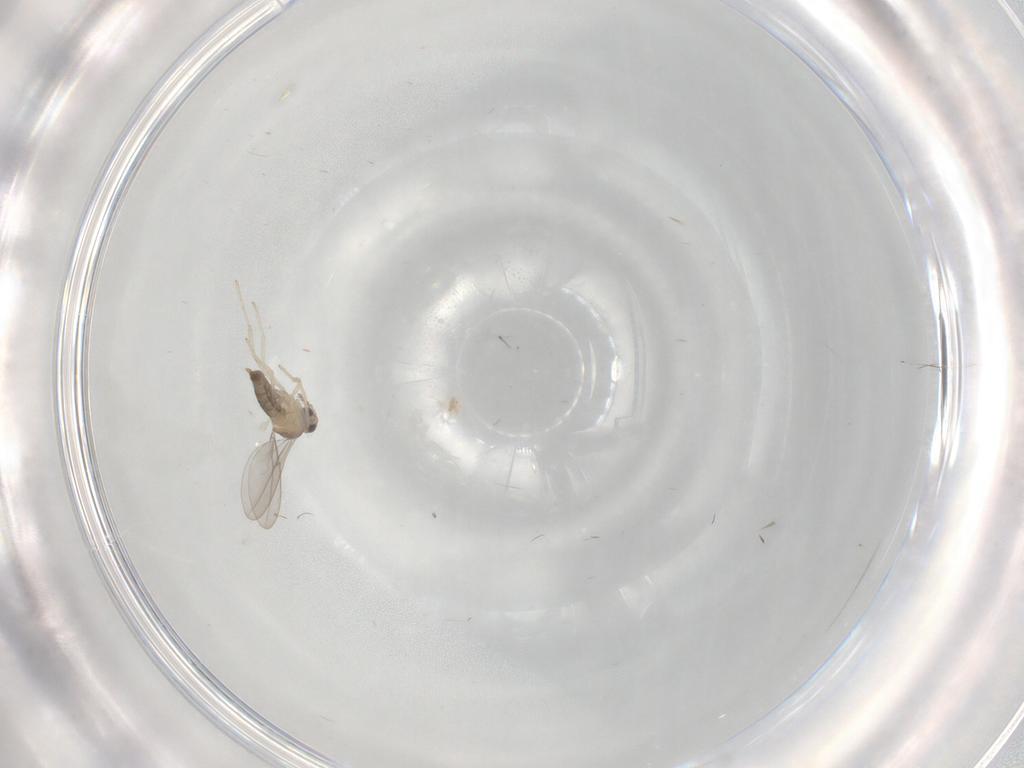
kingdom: Animalia
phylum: Arthropoda
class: Insecta
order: Diptera
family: Cecidomyiidae
